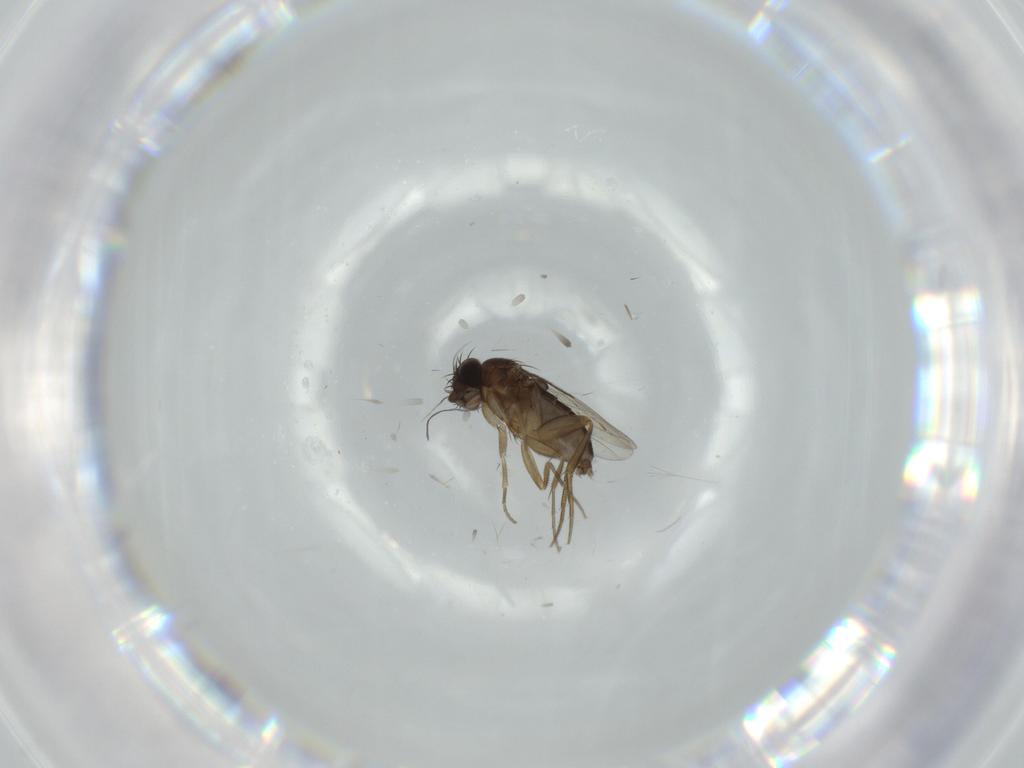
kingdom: Animalia
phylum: Arthropoda
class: Insecta
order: Diptera
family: Phoridae
